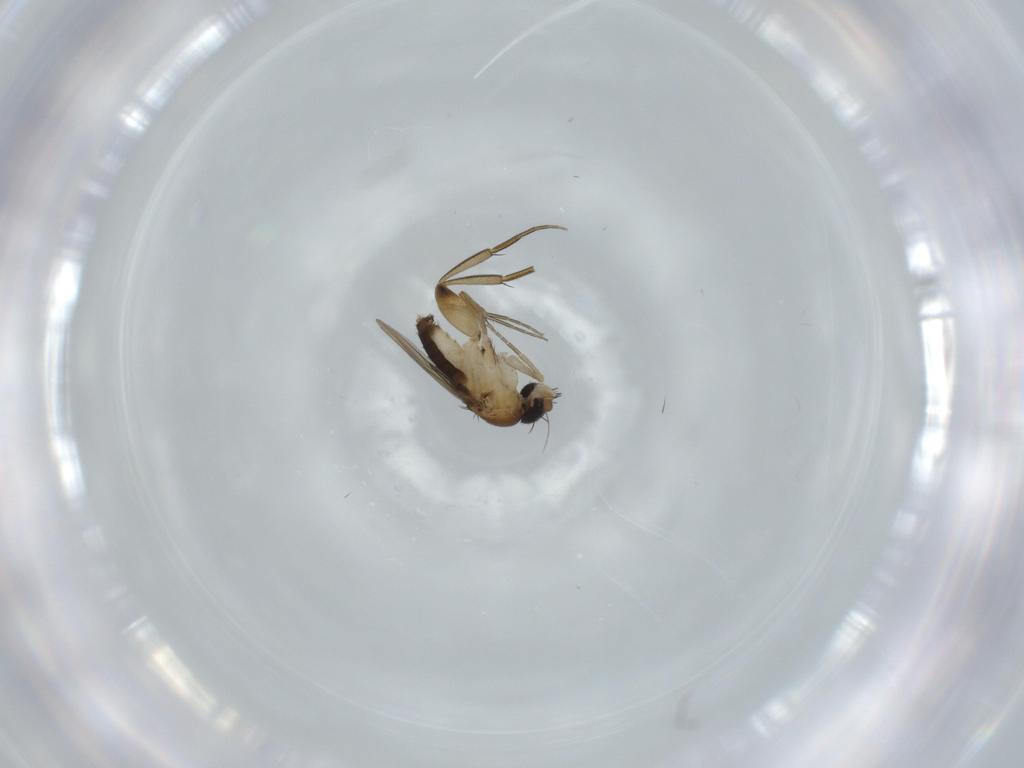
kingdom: Animalia
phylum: Arthropoda
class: Insecta
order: Diptera
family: Phoridae
